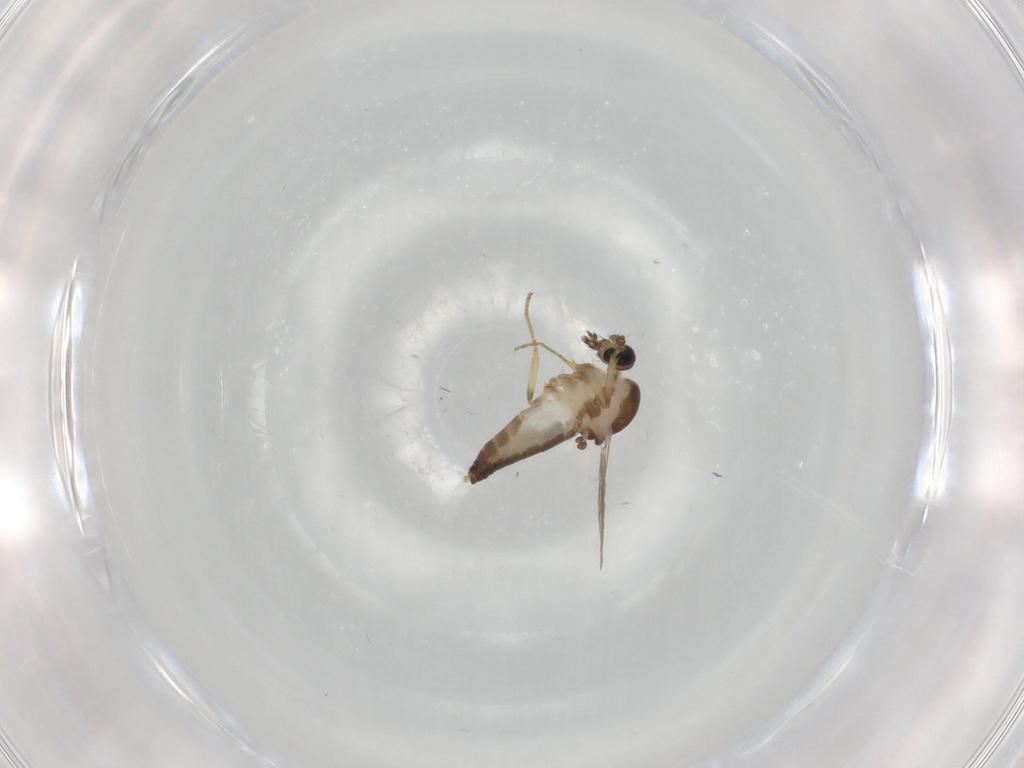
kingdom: Animalia
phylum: Arthropoda
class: Insecta
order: Diptera
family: Ceratopogonidae
